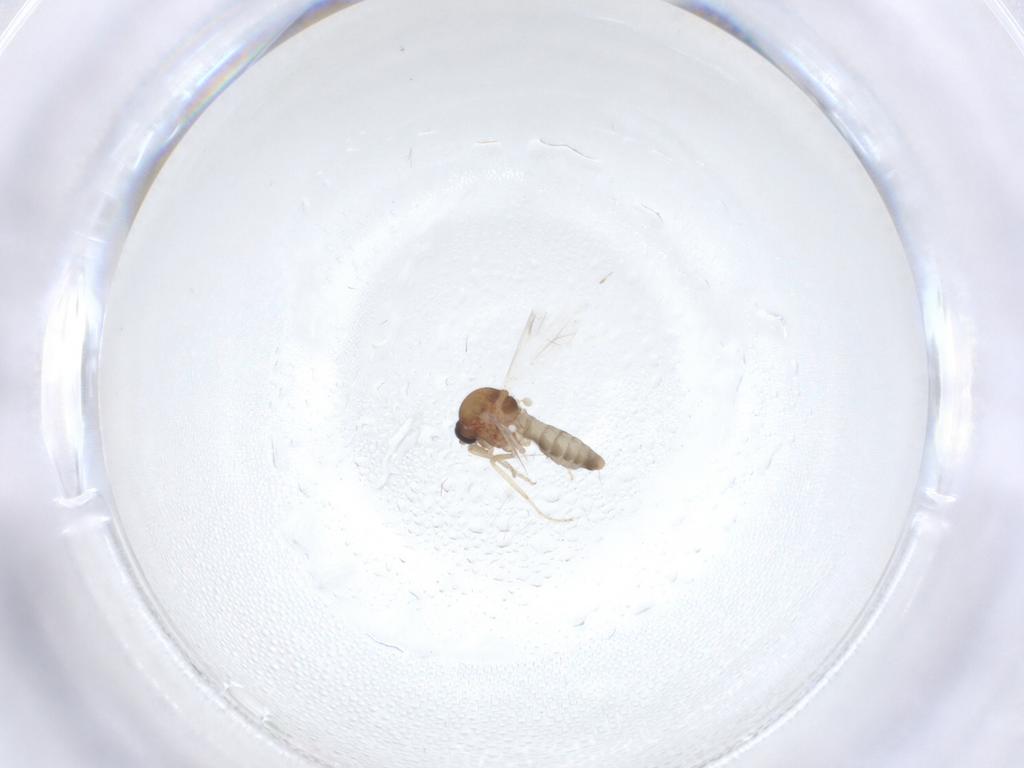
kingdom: Animalia
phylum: Arthropoda
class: Insecta
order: Diptera
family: Ceratopogonidae
